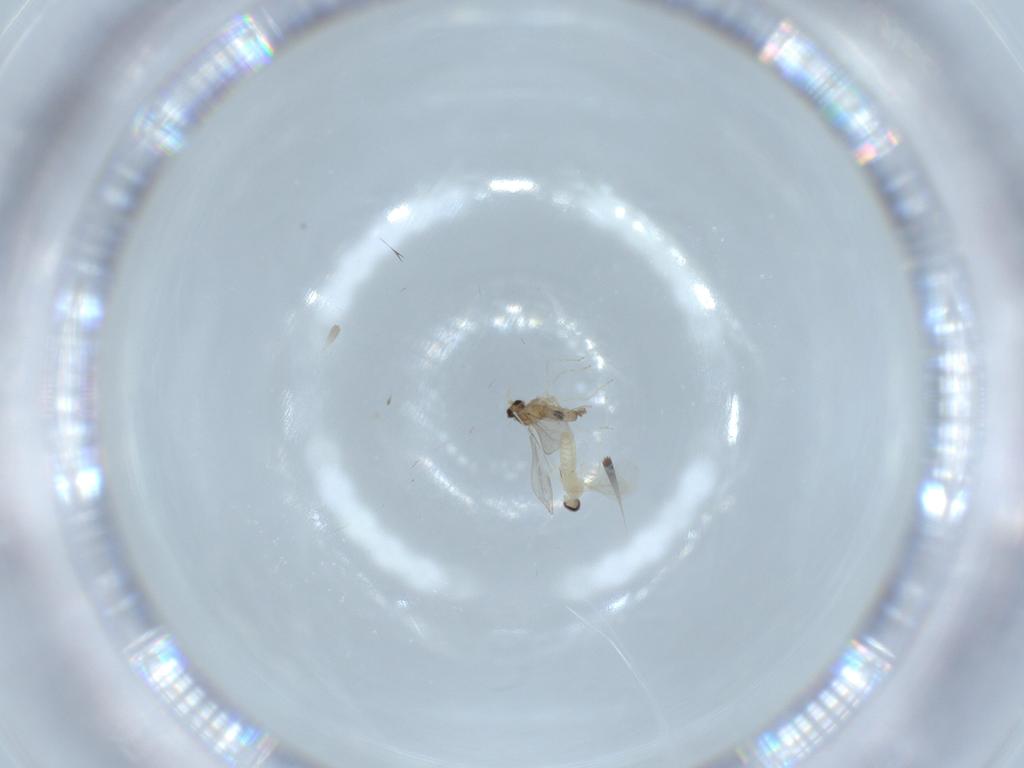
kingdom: Animalia
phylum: Arthropoda
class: Insecta
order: Diptera
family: Cecidomyiidae
